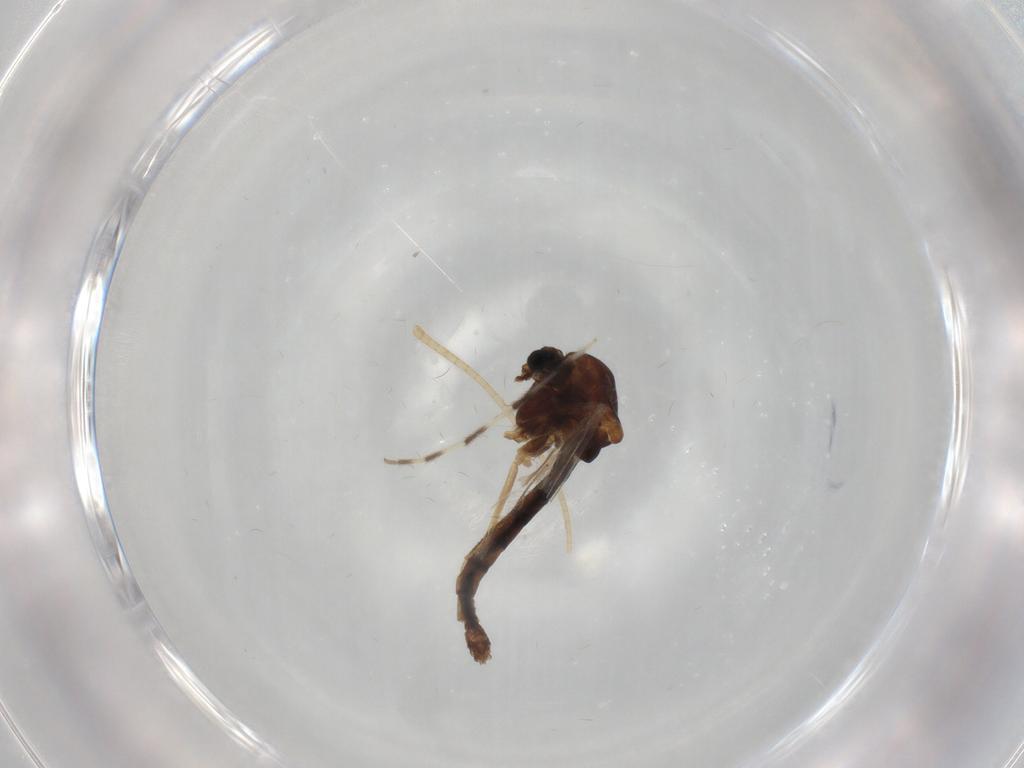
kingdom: Animalia
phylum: Arthropoda
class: Insecta
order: Diptera
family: Chironomidae
